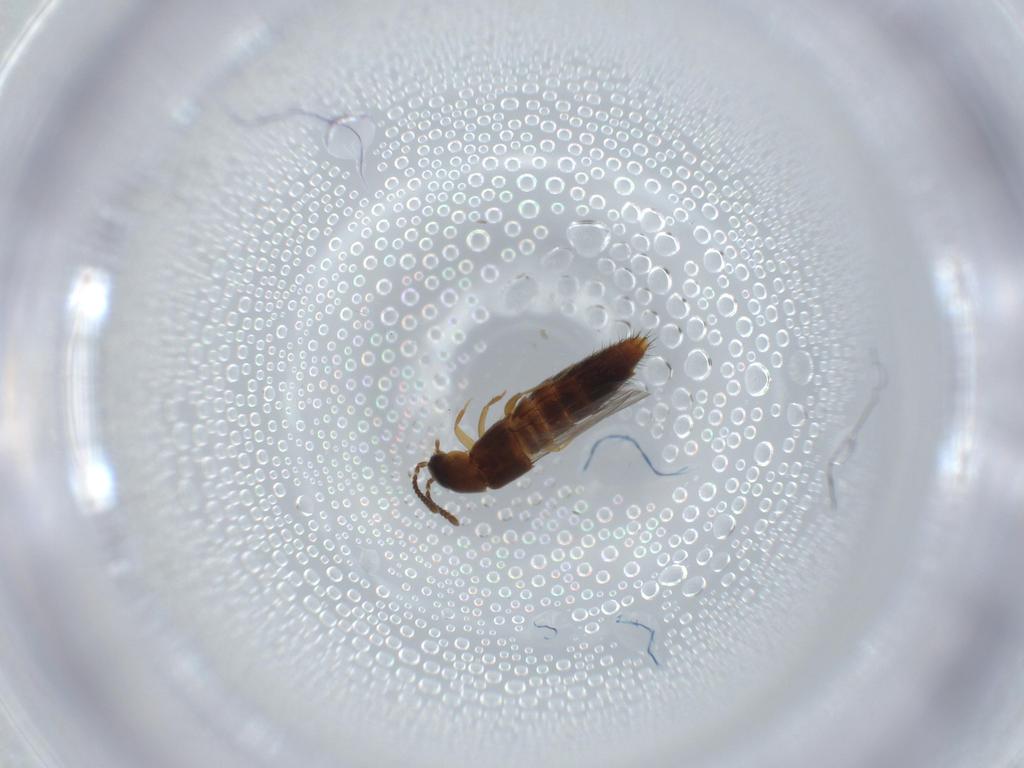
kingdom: Animalia
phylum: Arthropoda
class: Insecta
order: Coleoptera
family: Staphylinidae
